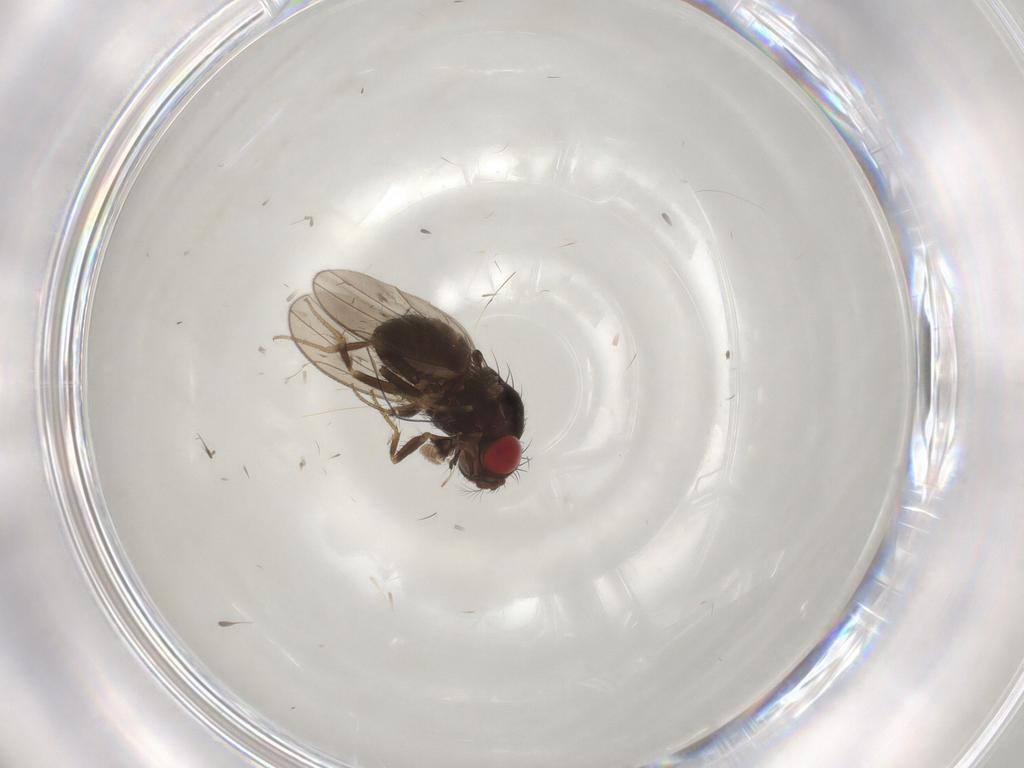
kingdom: Animalia
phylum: Arthropoda
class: Insecta
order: Diptera
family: Drosophilidae
